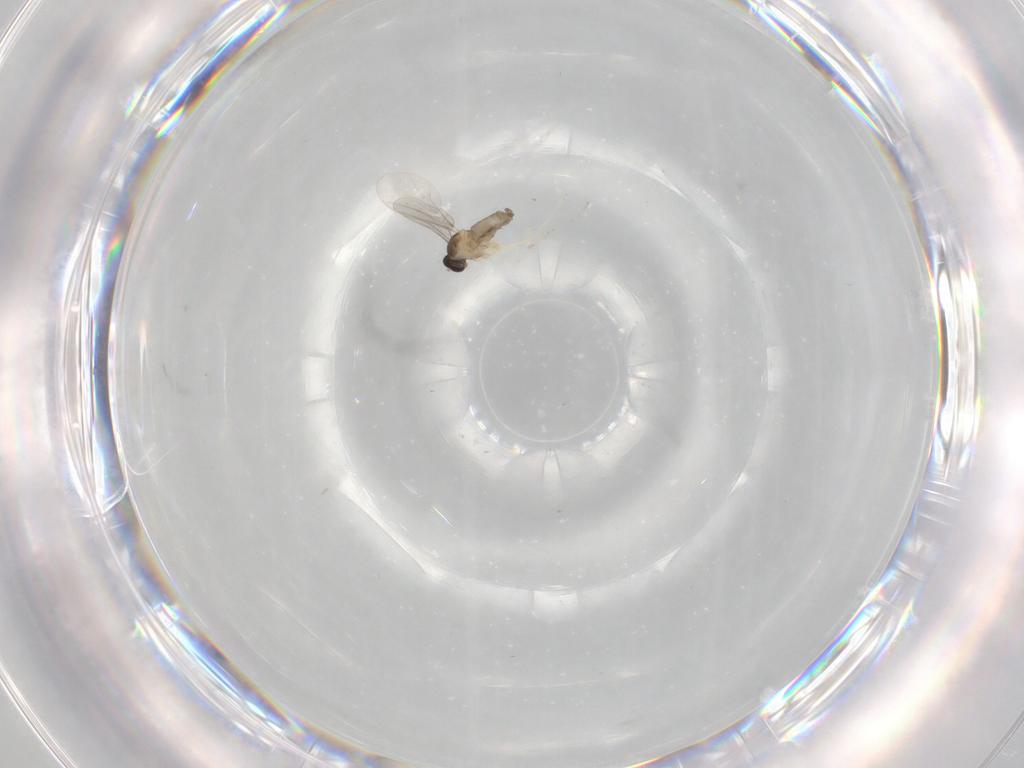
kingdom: Animalia
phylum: Arthropoda
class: Insecta
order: Diptera
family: Cecidomyiidae
